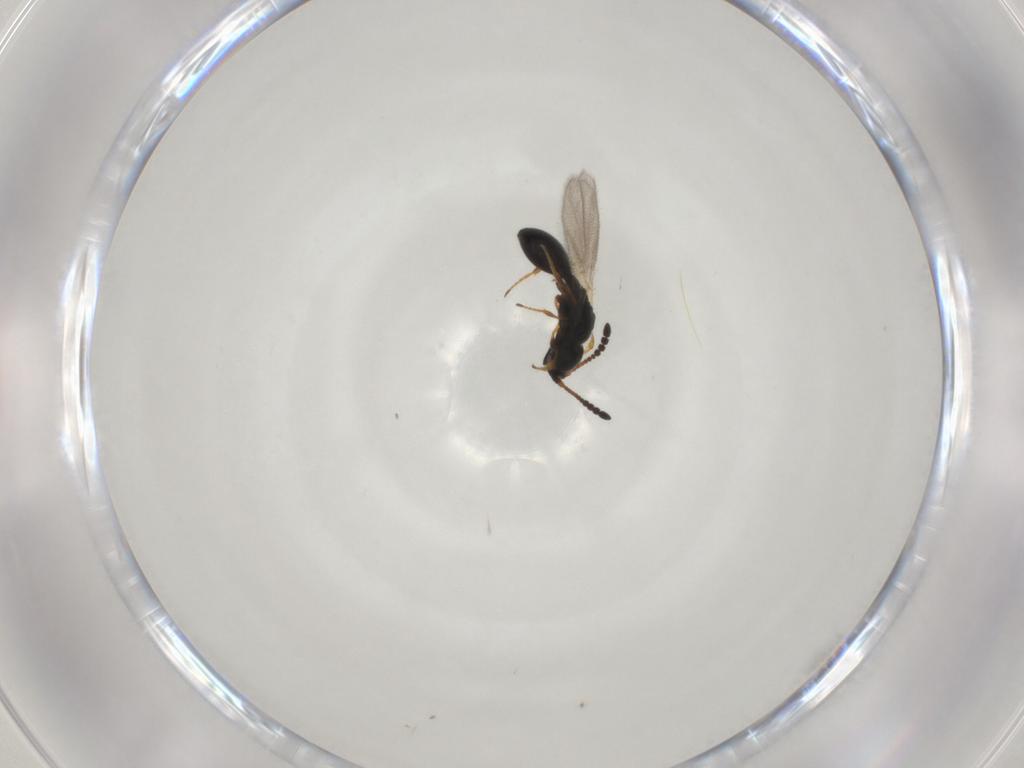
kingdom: Animalia
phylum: Arthropoda
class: Insecta
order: Hymenoptera
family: Diapriidae
